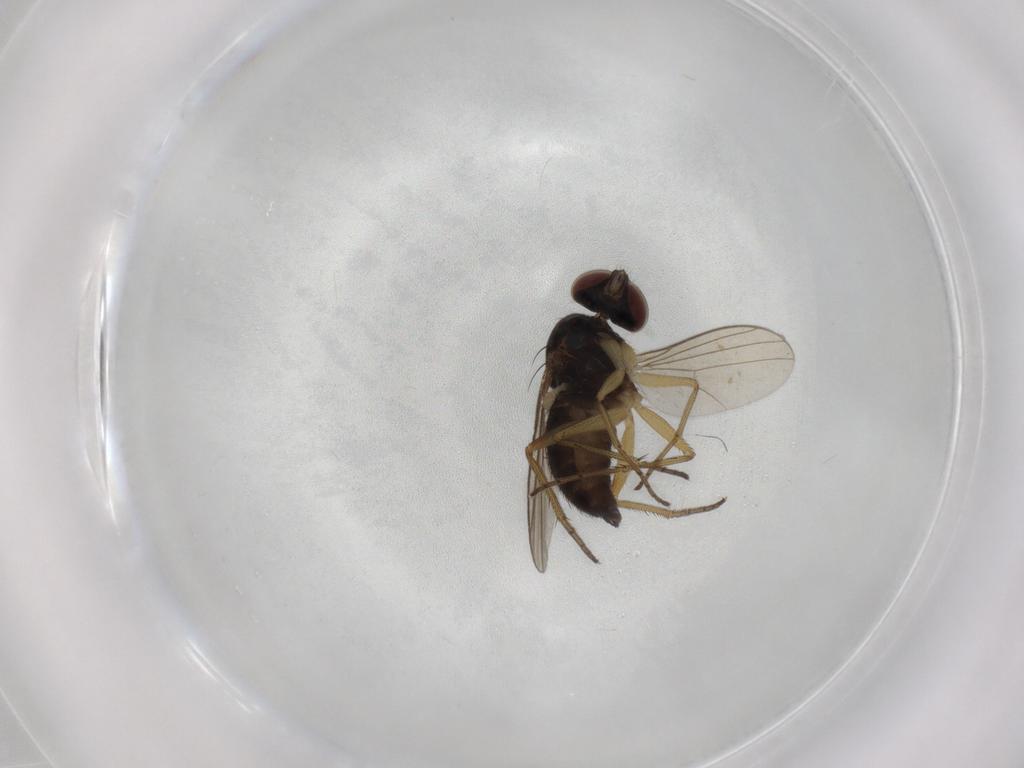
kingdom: Animalia
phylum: Arthropoda
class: Insecta
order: Diptera
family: Dolichopodidae
